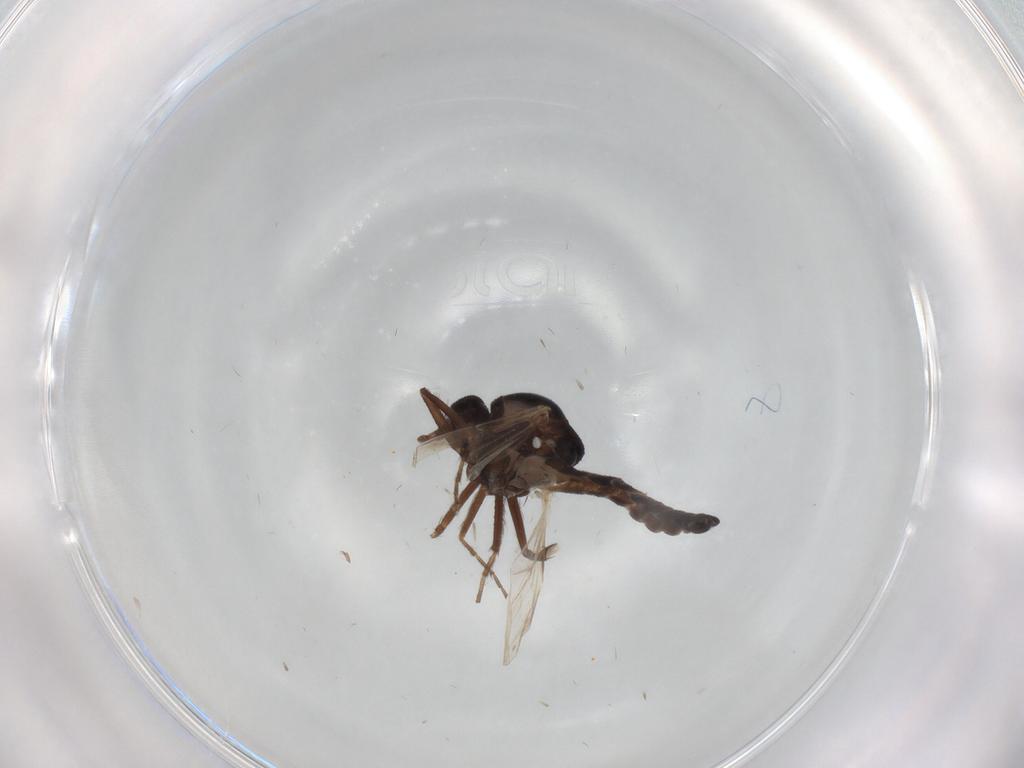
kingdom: Animalia
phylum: Arthropoda
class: Insecta
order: Diptera
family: Ceratopogonidae
